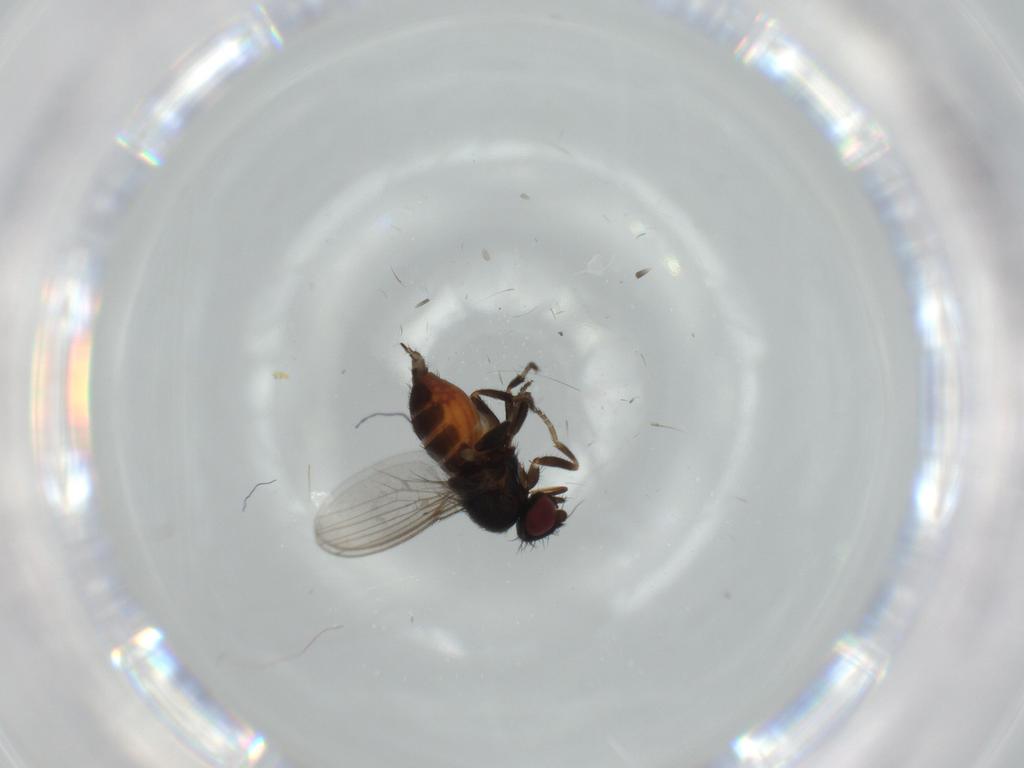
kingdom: Animalia
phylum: Arthropoda
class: Insecta
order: Diptera
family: Milichiidae
